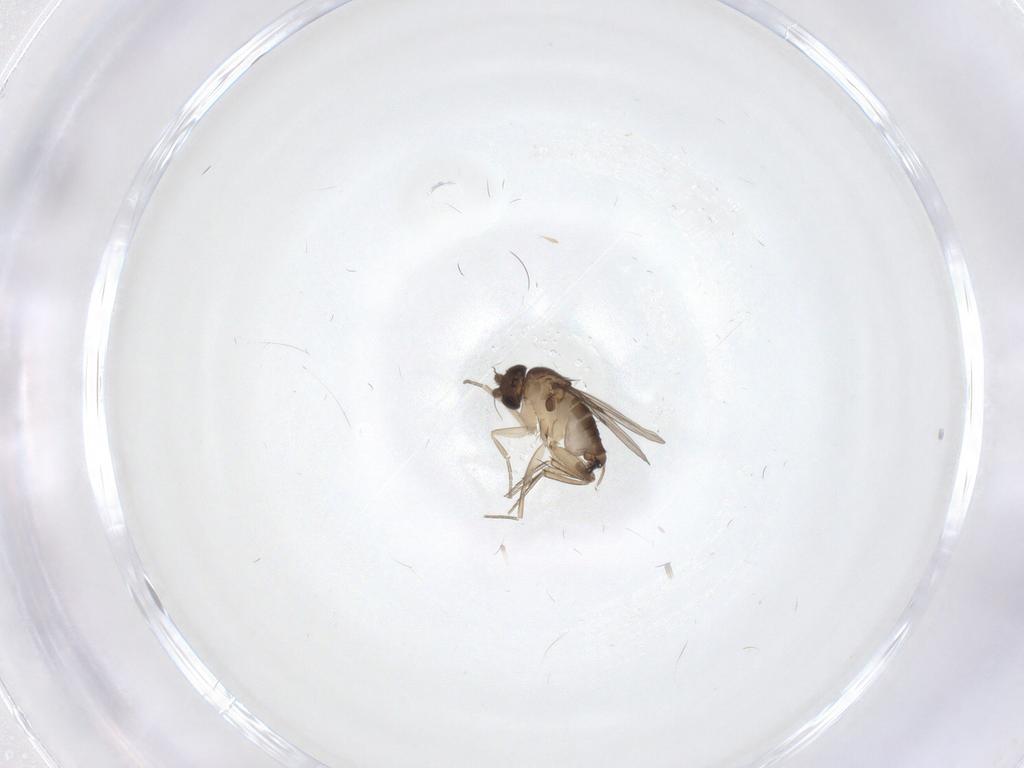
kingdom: Animalia
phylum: Arthropoda
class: Insecta
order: Diptera
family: Phoridae
